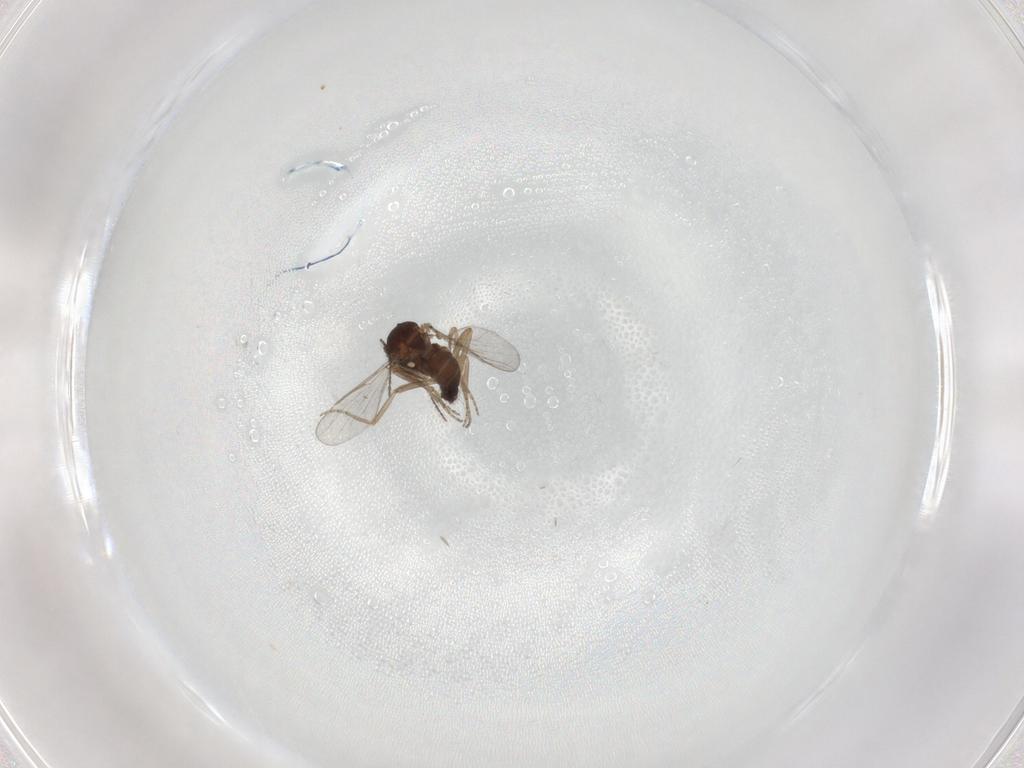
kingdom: Animalia
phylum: Arthropoda
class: Insecta
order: Diptera
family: Ceratopogonidae
